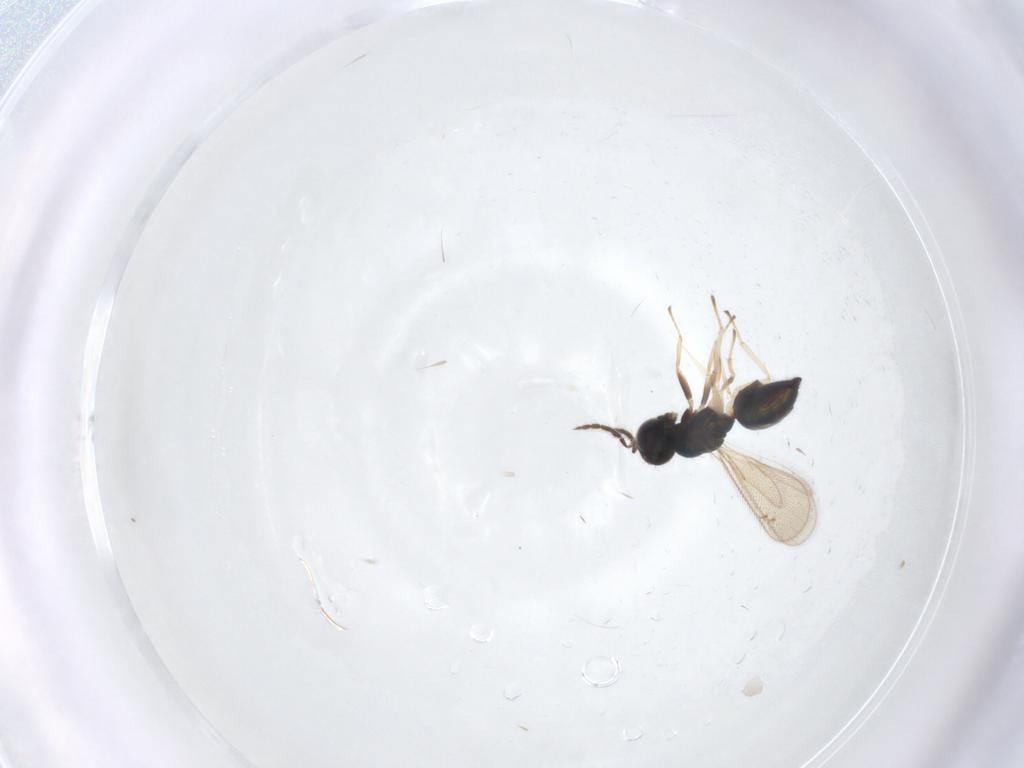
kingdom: Animalia
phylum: Arthropoda
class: Insecta
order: Hymenoptera
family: Eulophidae
